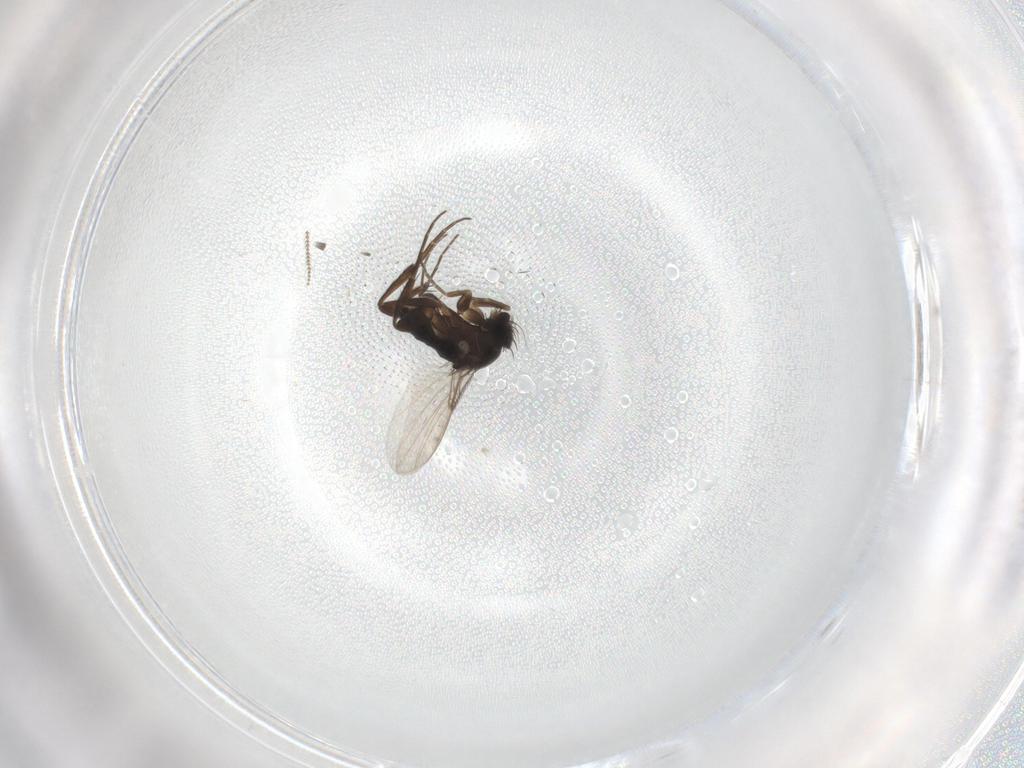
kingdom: Animalia
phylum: Arthropoda
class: Insecta
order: Diptera
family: Phoridae
